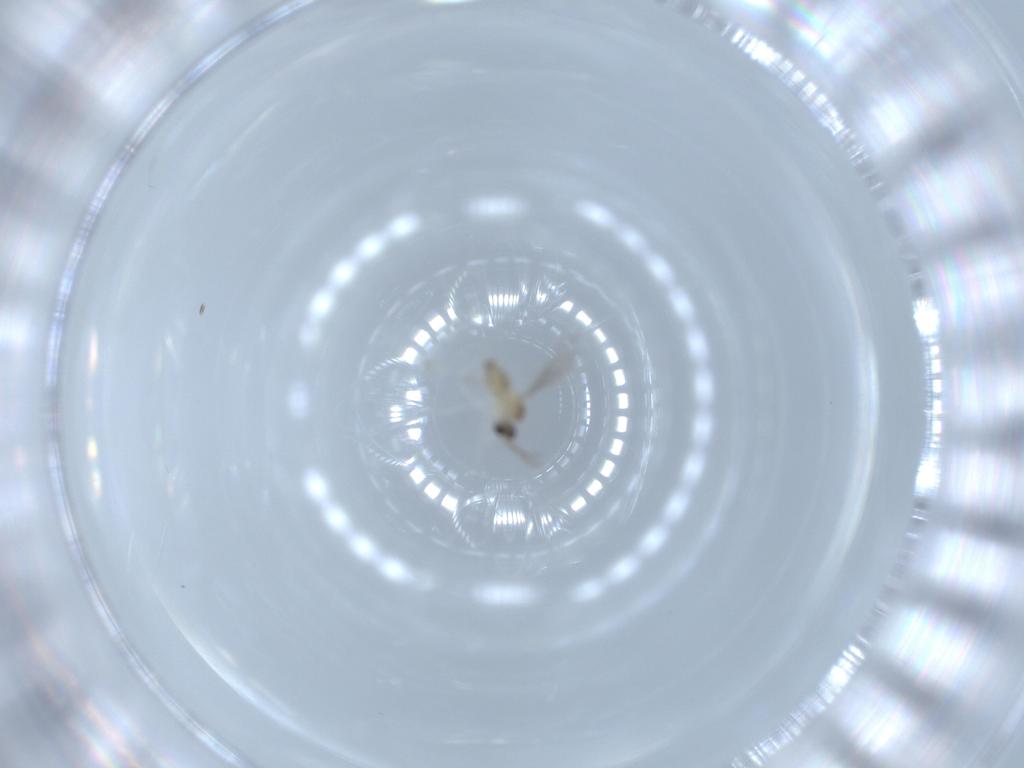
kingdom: Animalia
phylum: Arthropoda
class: Insecta
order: Diptera
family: Cecidomyiidae
